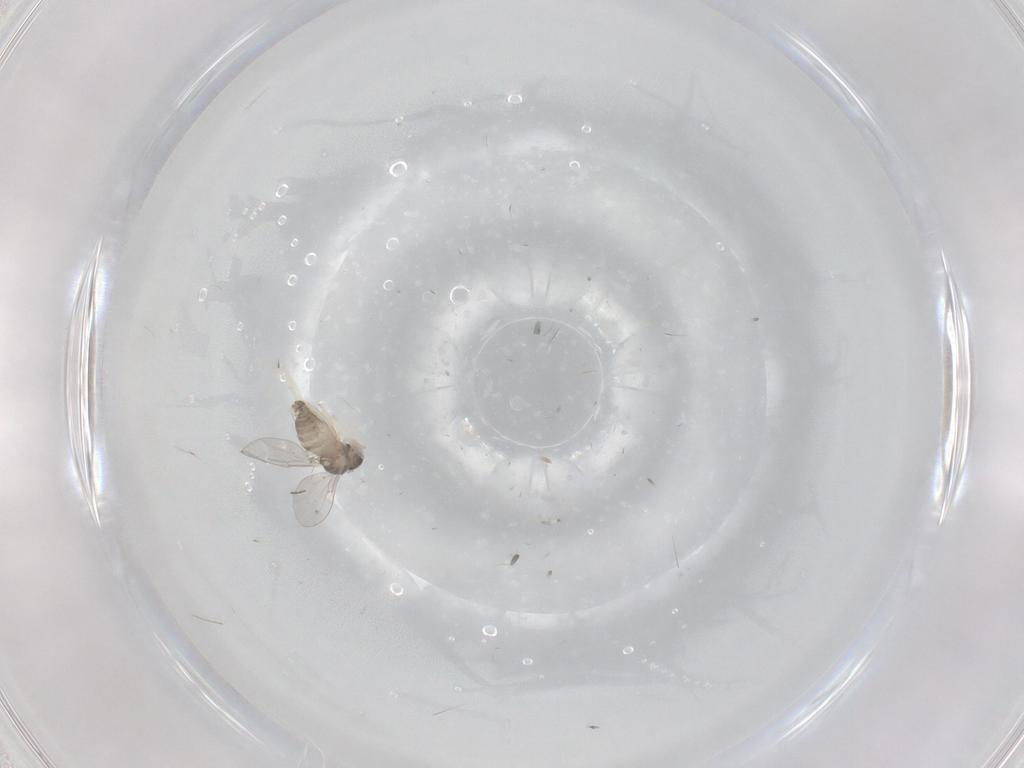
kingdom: Animalia
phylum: Arthropoda
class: Insecta
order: Diptera
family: Cecidomyiidae
